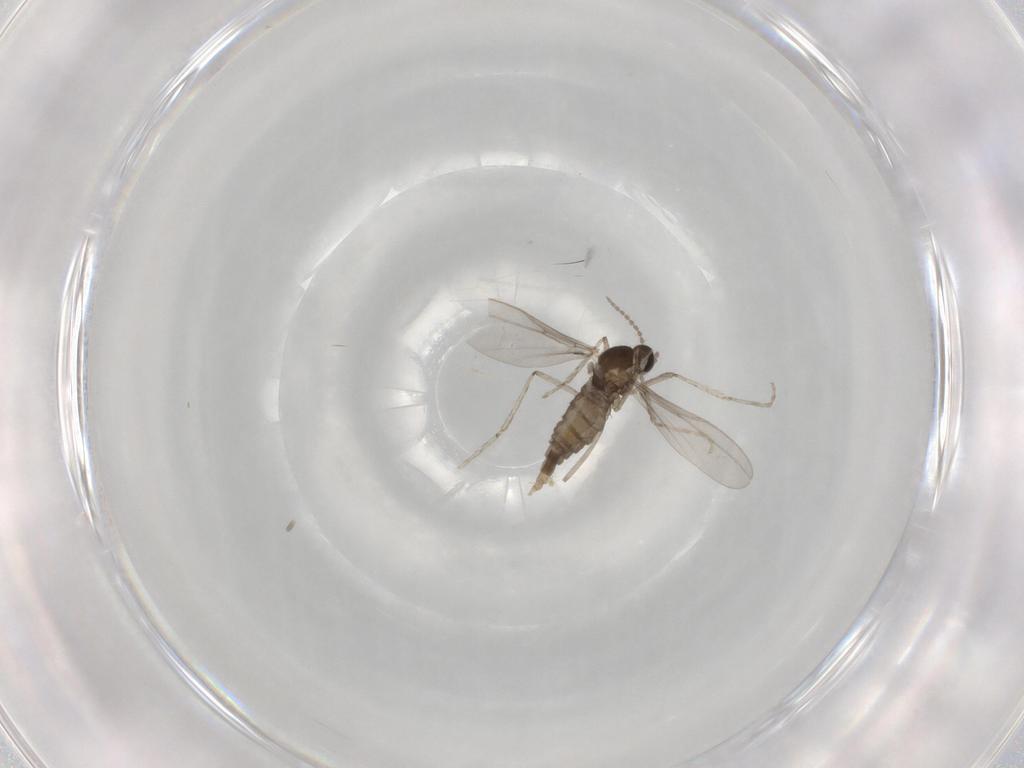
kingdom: Animalia
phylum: Arthropoda
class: Insecta
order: Diptera
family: Cecidomyiidae
